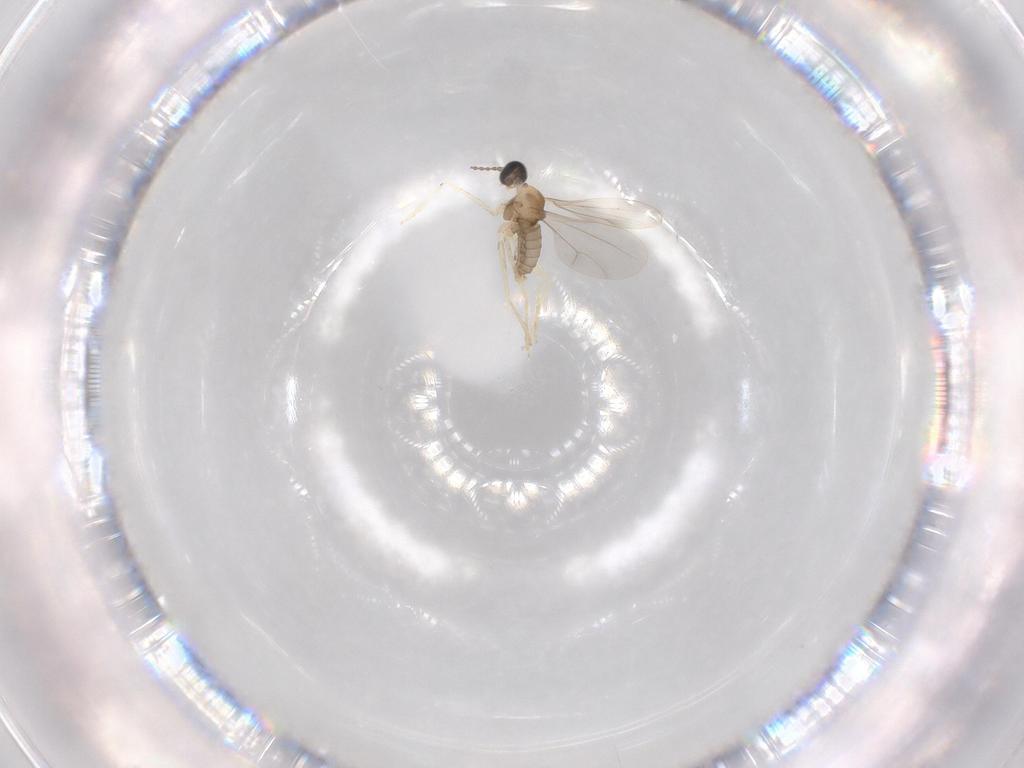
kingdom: Animalia
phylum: Arthropoda
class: Insecta
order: Diptera
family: Cecidomyiidae
